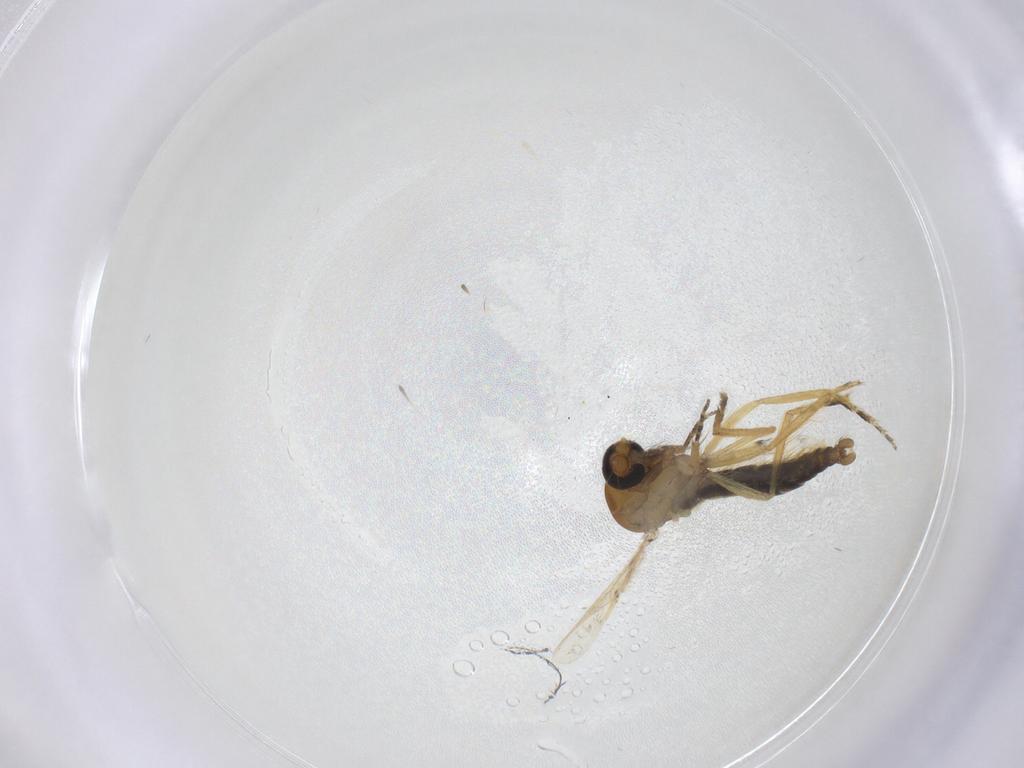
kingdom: Animalia
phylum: Arthropoda
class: Insecta
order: Diptera
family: Ceratopogonidae
